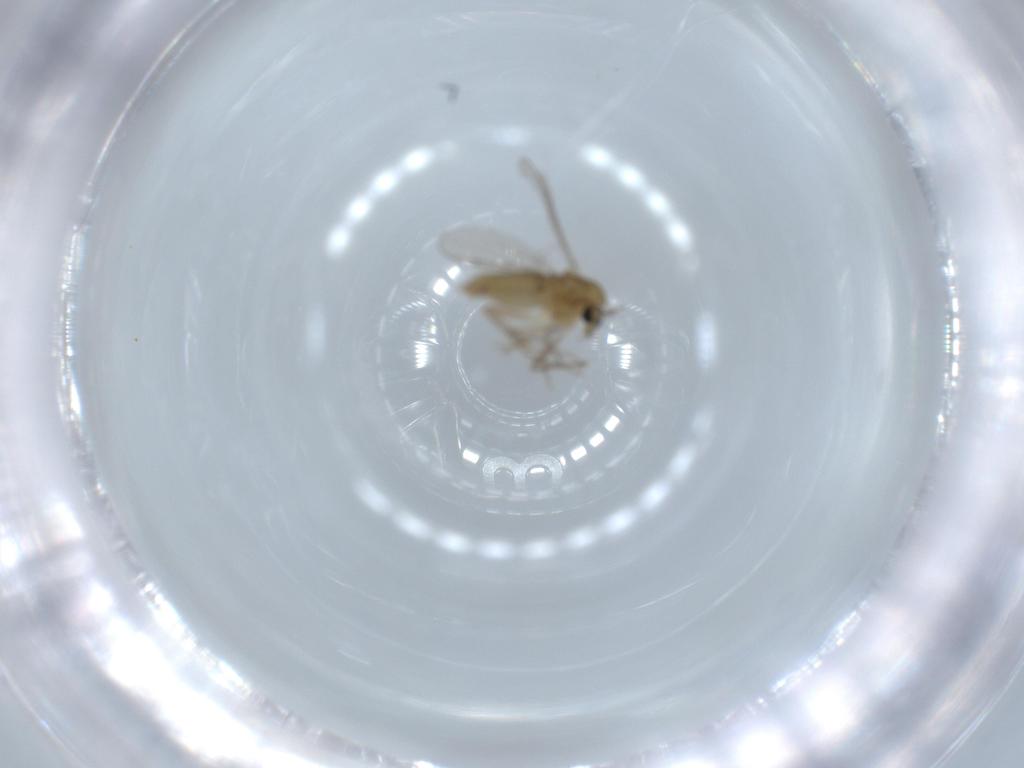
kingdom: Animalia
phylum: Arthropoda
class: Insecta
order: Diptera
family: Chironomidae
